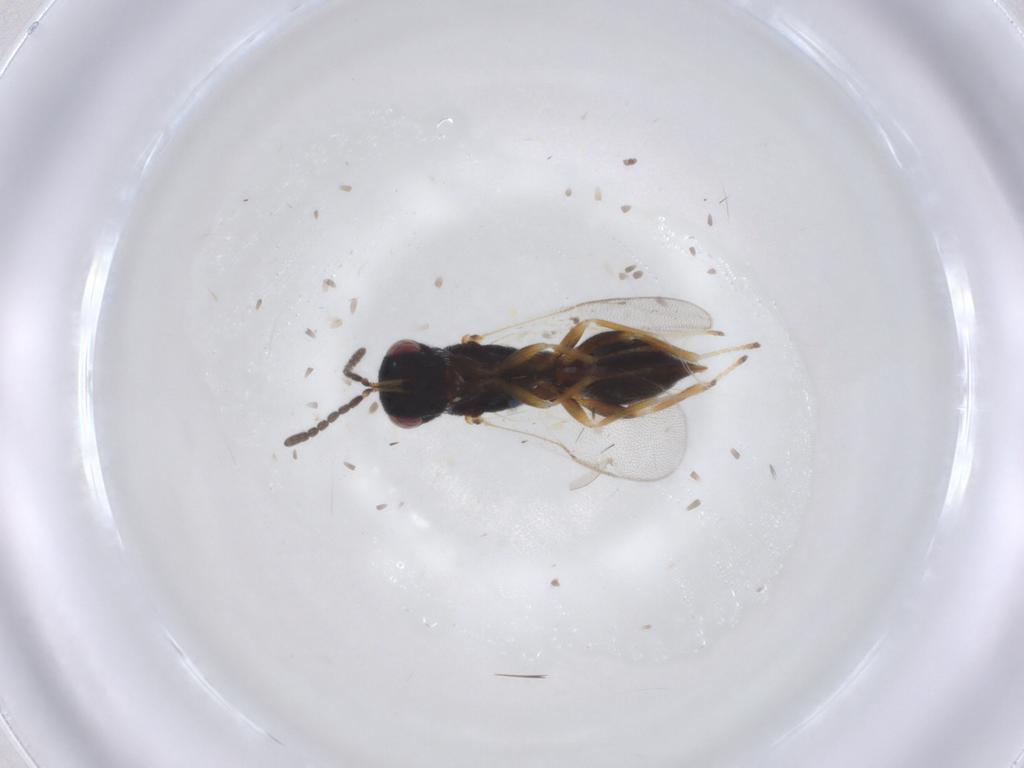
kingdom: Animalia
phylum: Arthropoda
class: Insecta
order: Hymenoptera
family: Eurytomidae
